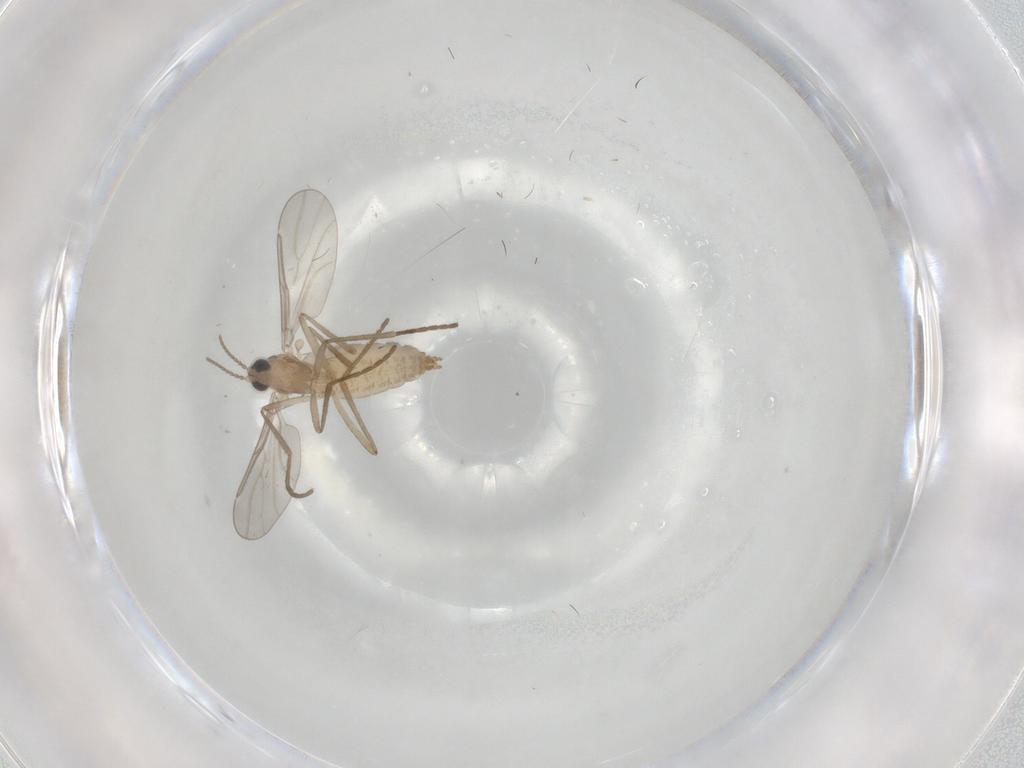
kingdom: Animalia
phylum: Arthropoda
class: Insecta
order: Diptera
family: Cecidomyiidae
